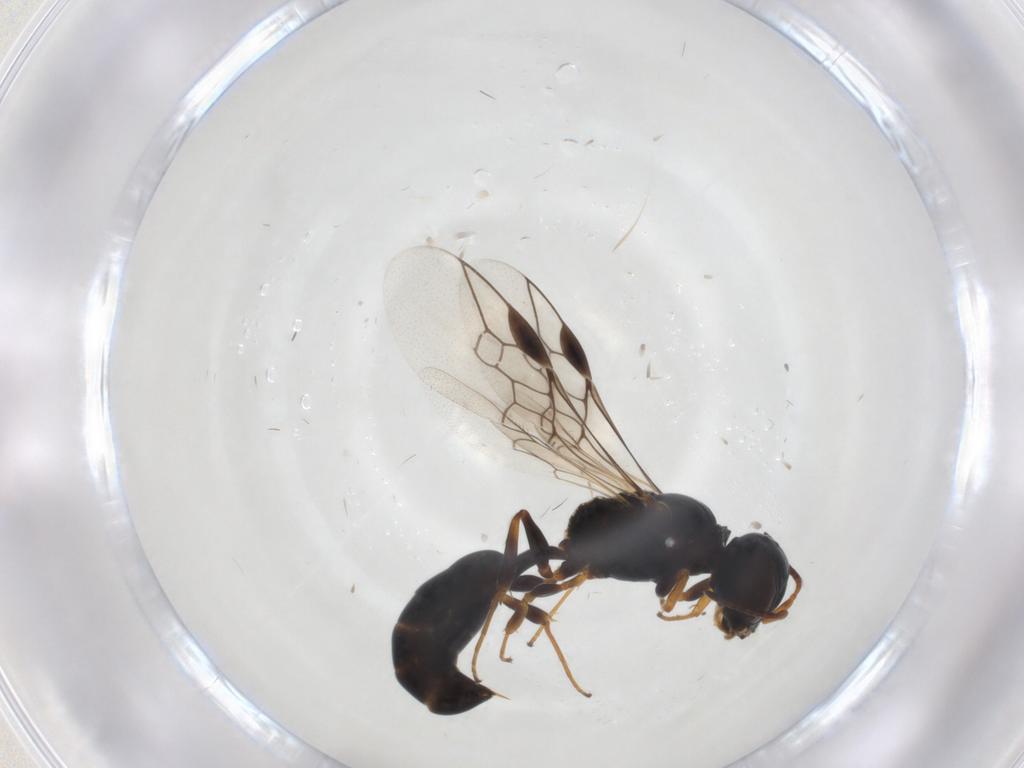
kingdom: Animalia
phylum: Arthropoda
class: Insecta
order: Hymenoptera
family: Pemphredonidae
